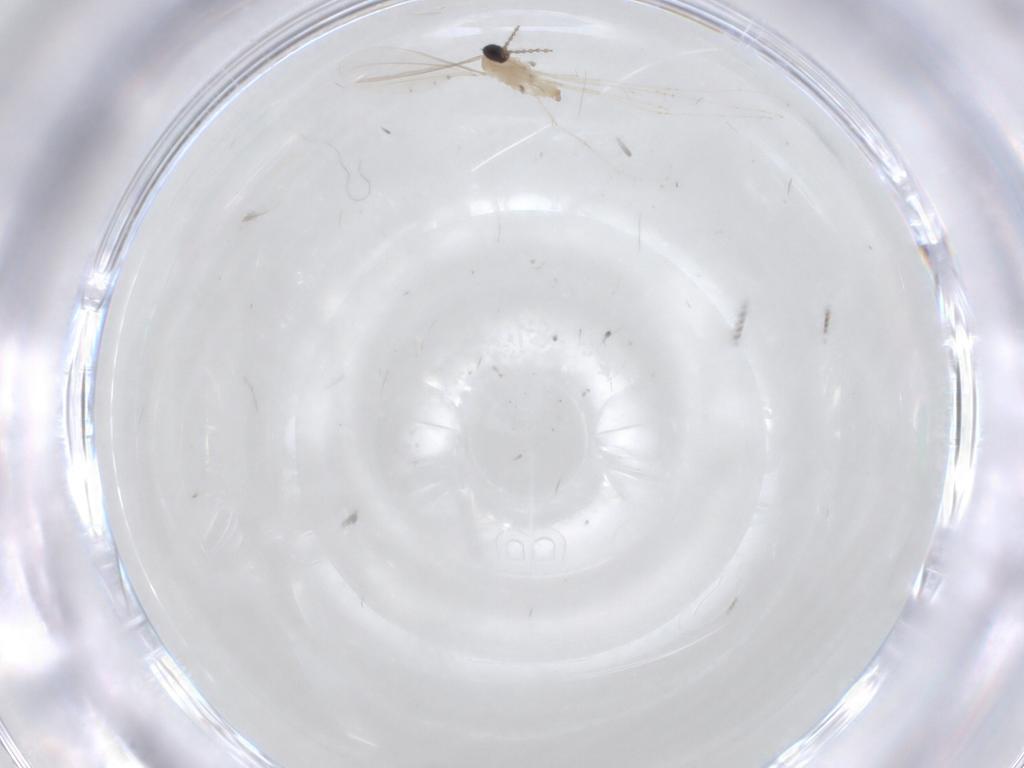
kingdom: Animalia
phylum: Arthropoda
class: Insecta
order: Diptera
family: Cecidomyiidae
